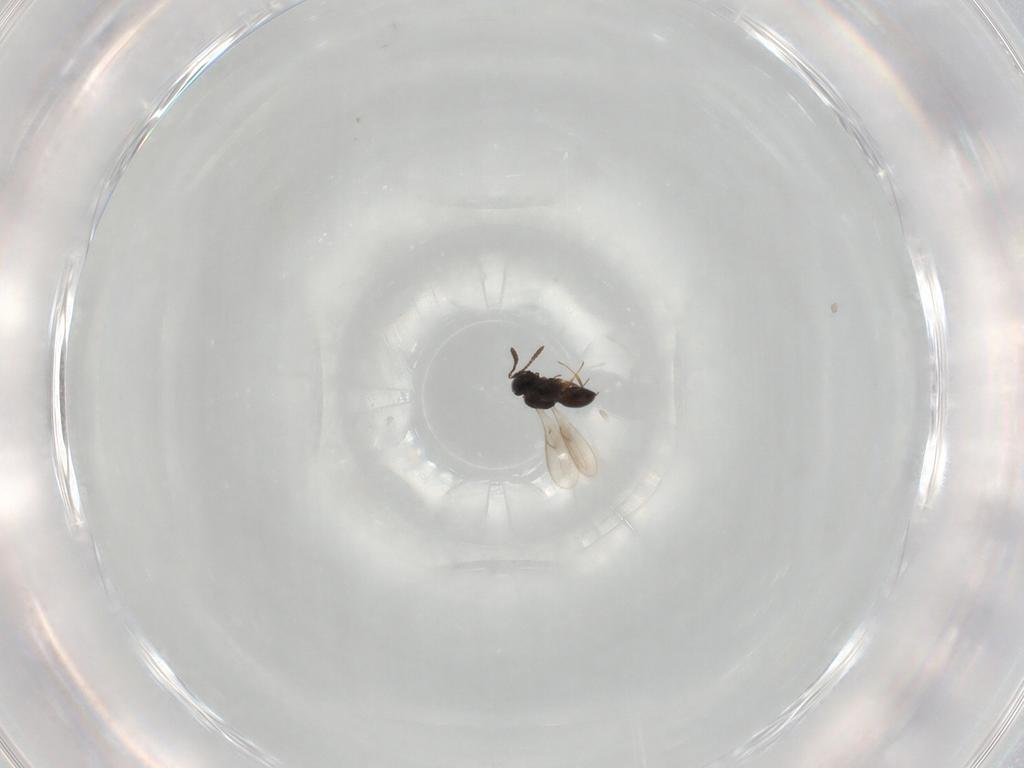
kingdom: Animalia
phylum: Arthropoda
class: Insecta
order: Hymenoptera
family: Scelionidae
